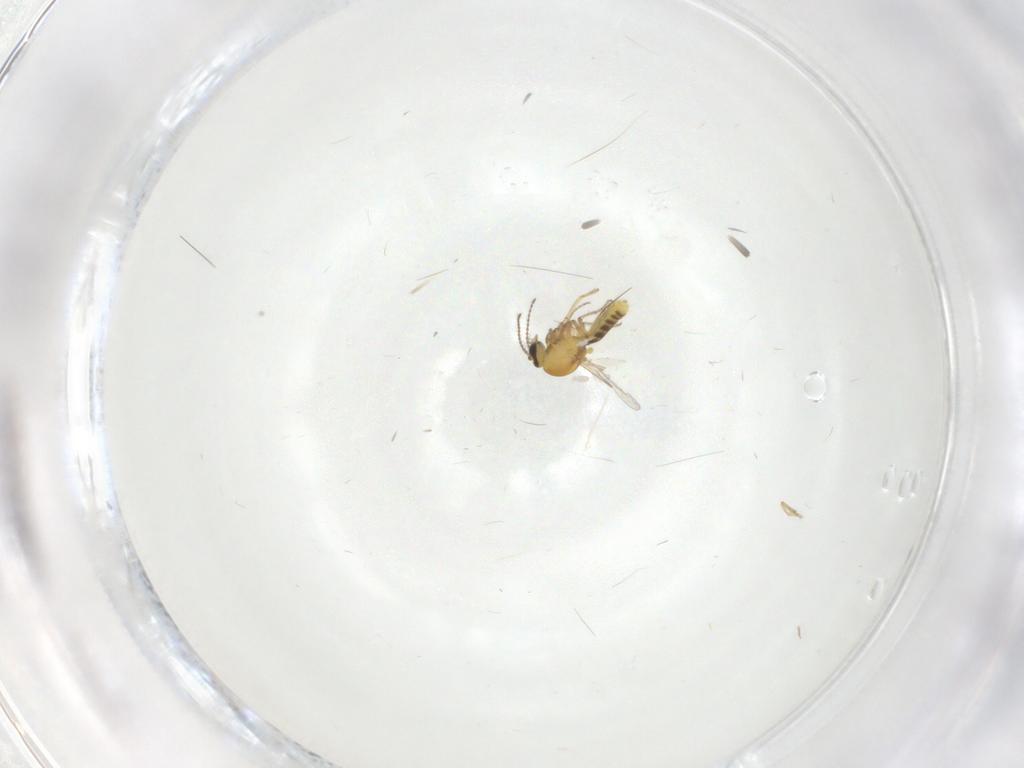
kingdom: Animalia
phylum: Arthropoda
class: Insecta
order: Diptera
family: Ceratopogonidae
